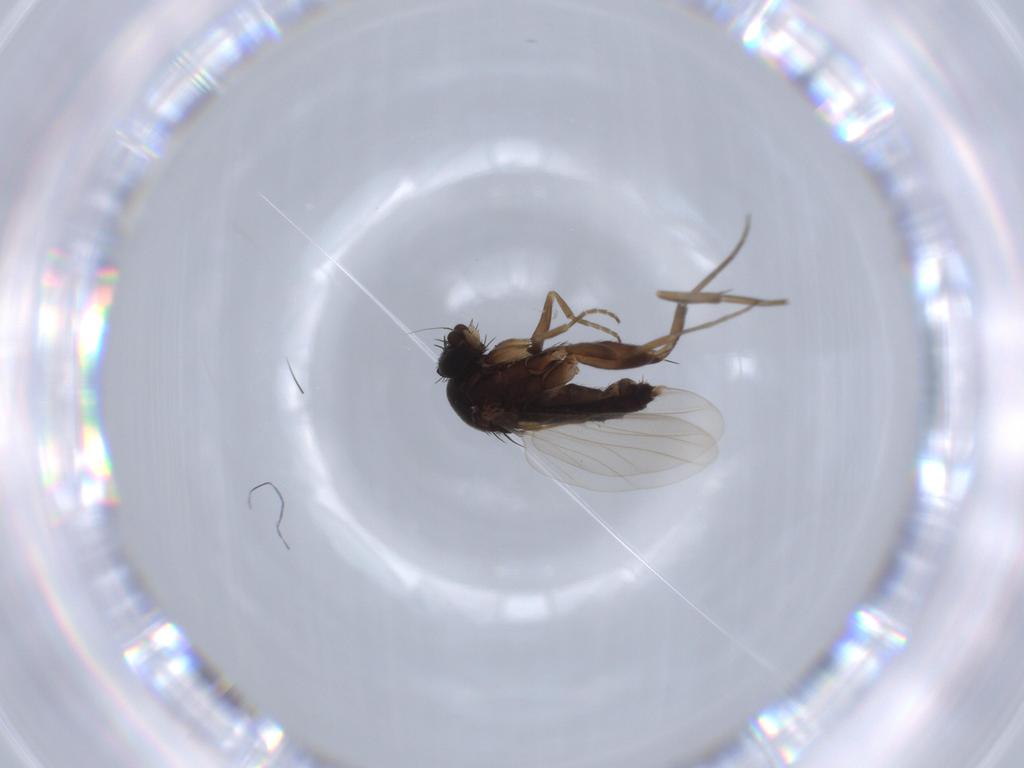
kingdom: Animalia
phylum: Arthropoda
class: Insecta
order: Diptera
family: Phoridae
